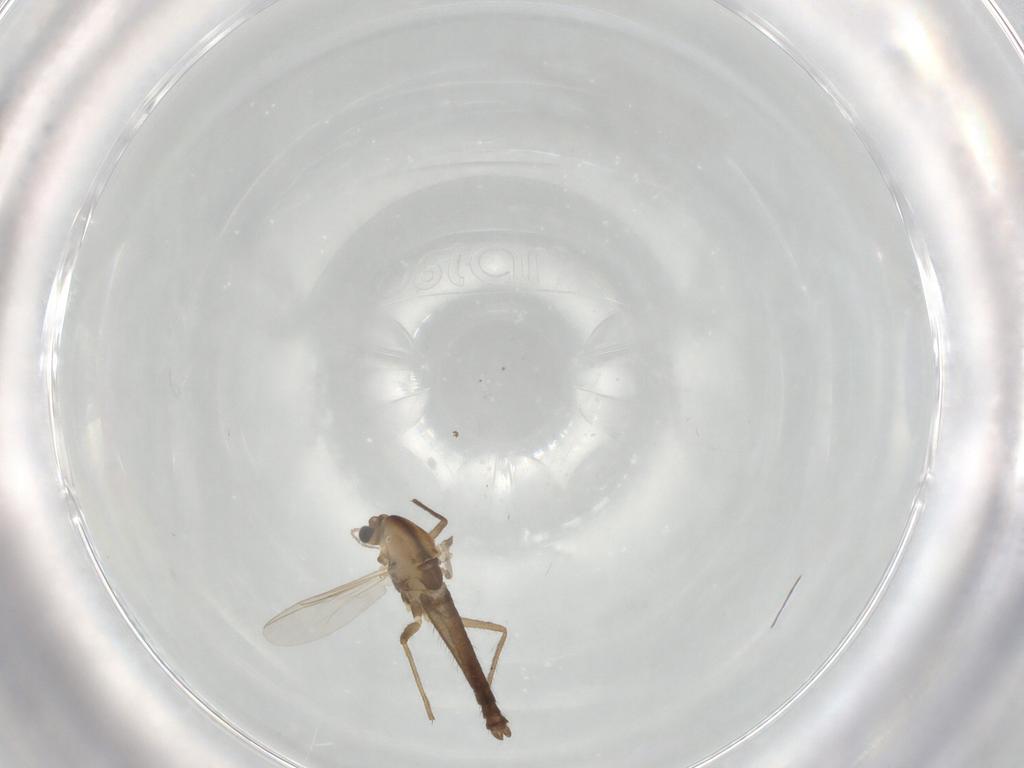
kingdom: Animalia
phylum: Arthropoda
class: Insecta
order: Diptera
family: Chironomidae
